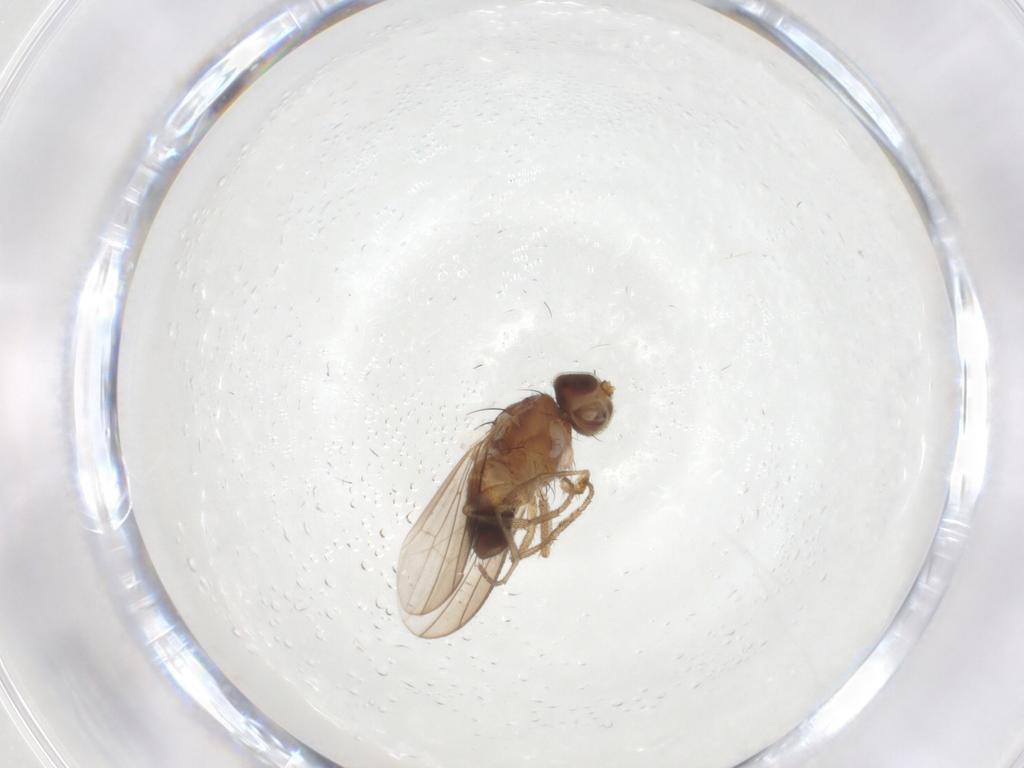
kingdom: Animalia
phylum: Arthropoda
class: Insecta
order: Diptera
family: Heleomyzidae
